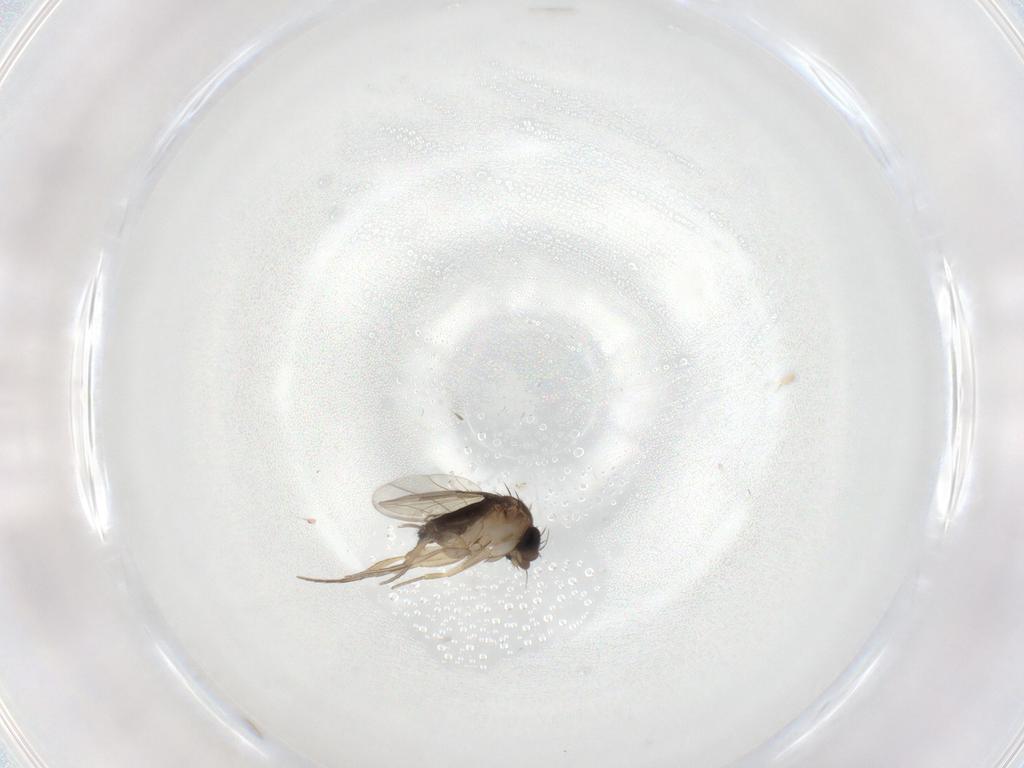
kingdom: Animalia
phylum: Arthropoda
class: Insecta
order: Diptera
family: Phoridae
